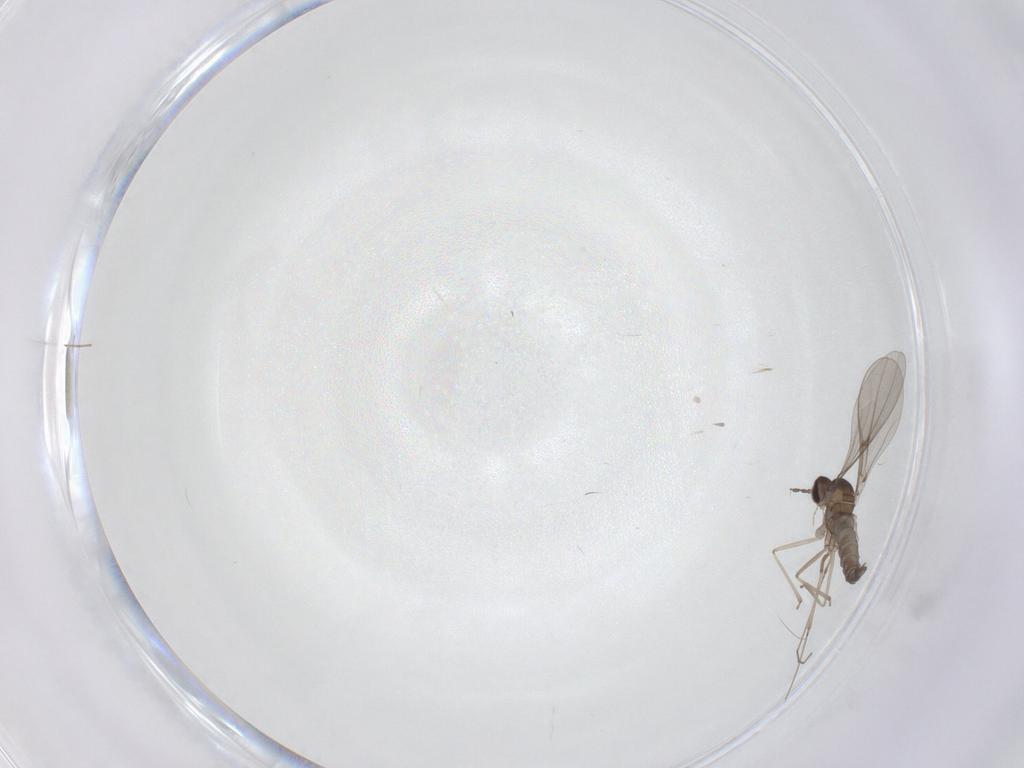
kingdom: Animalia
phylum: Arthropoda
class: Insecta
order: Diptera
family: Cecidomyiidae
